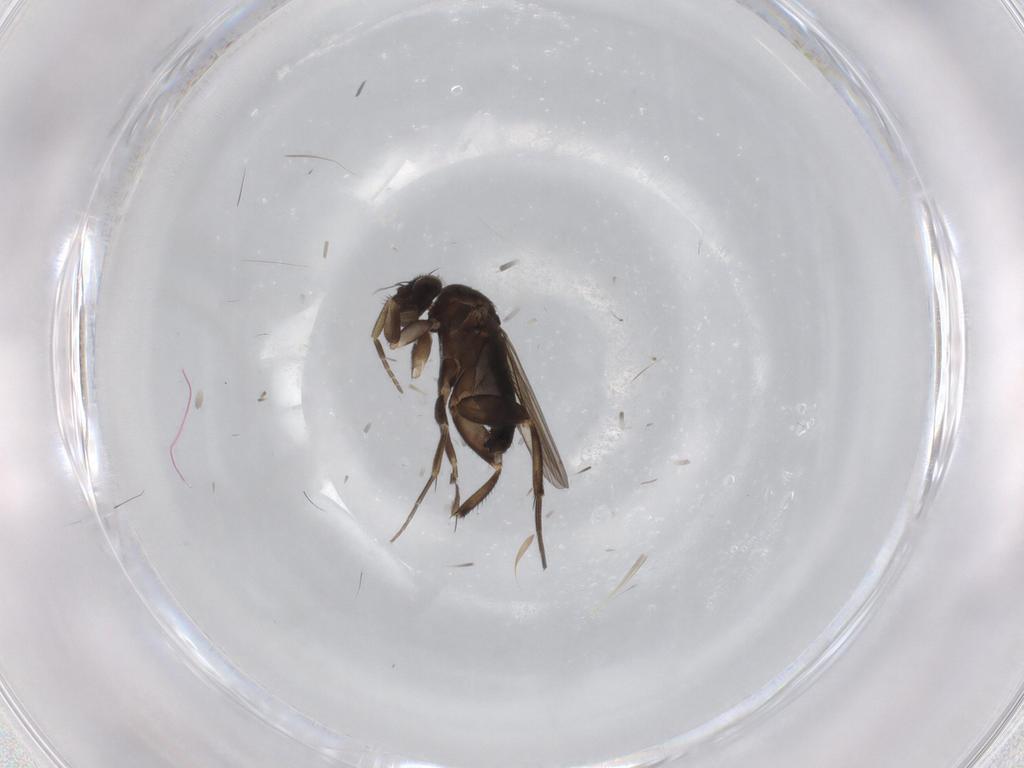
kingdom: Animalia
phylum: Arthropoda
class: Insecta
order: Diptera
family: Phoridae
